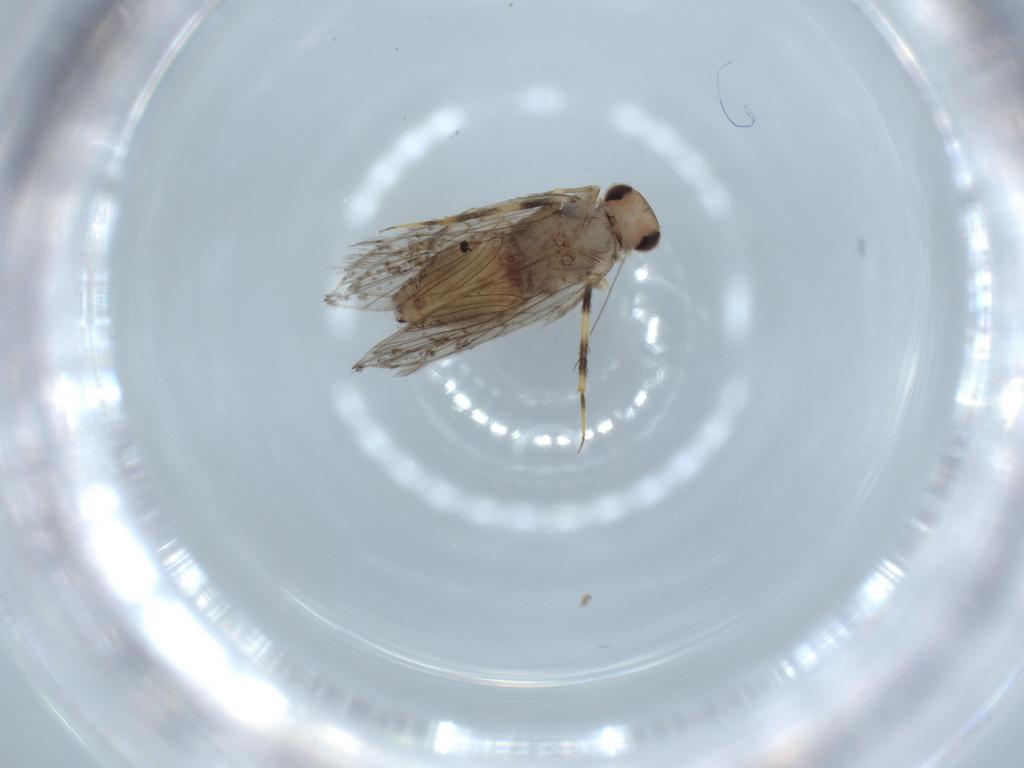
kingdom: Animalia
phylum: Arthropoda
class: Insecta
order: Psocodea
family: Lepidopsocidae
